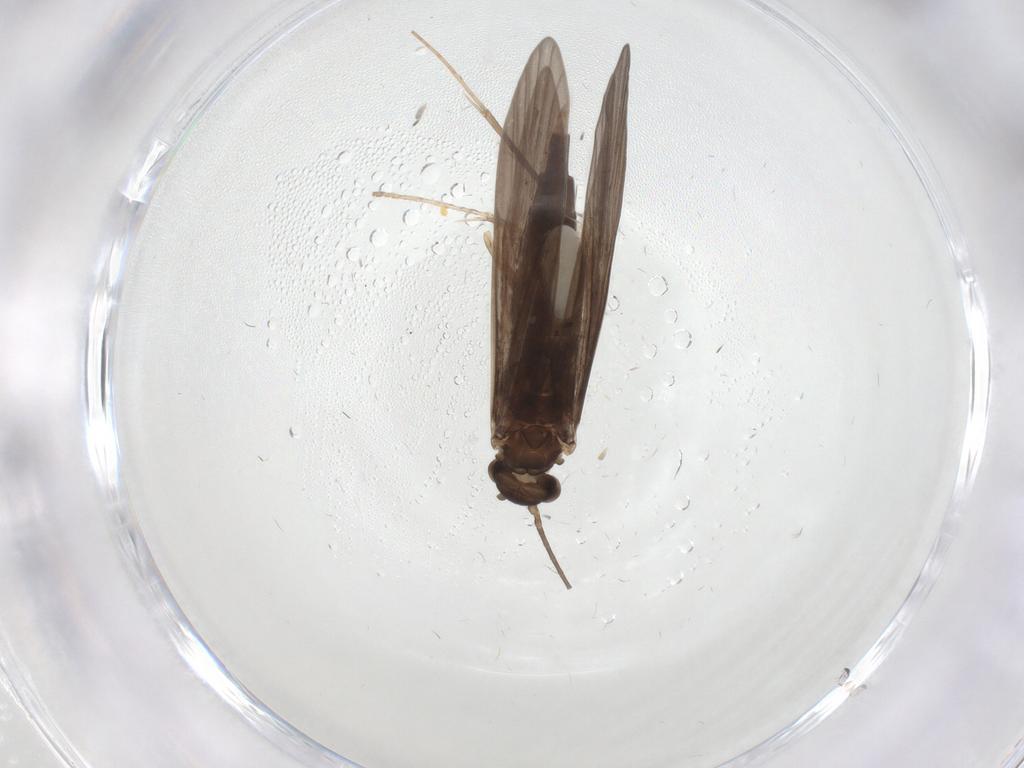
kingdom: Animalia
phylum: Arthropoda
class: Insecta
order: Trichoptera
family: Xiphocentronidae
